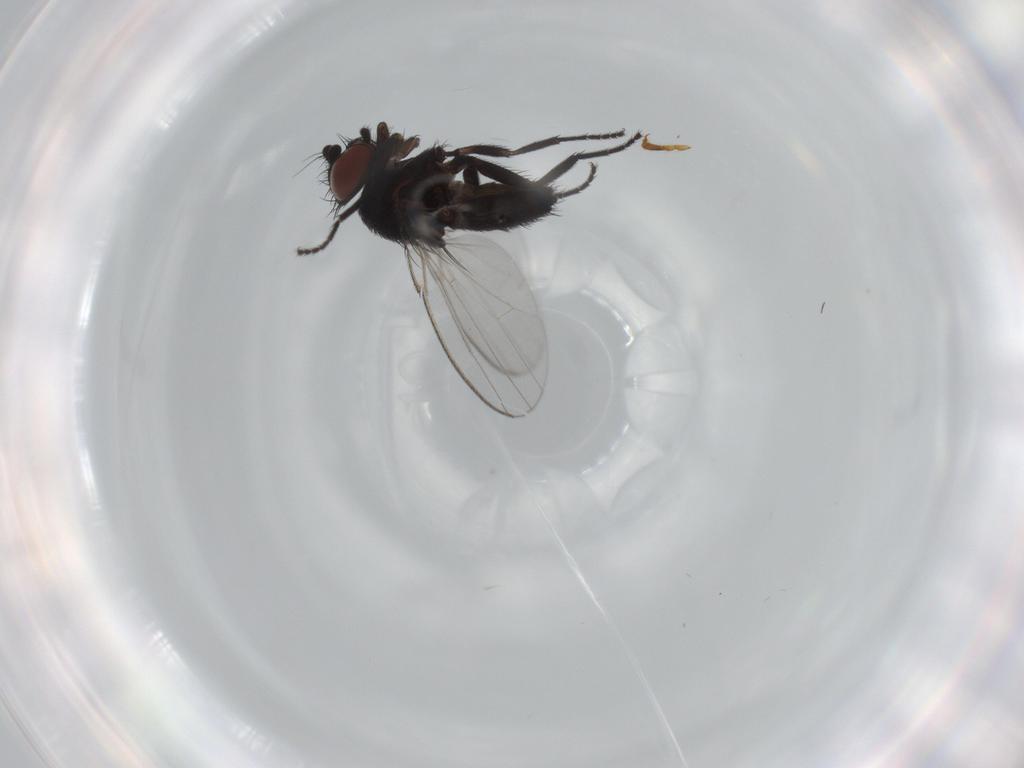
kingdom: Animalia
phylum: Arthropoda
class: Insecta
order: Diptera
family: Milichiidae
